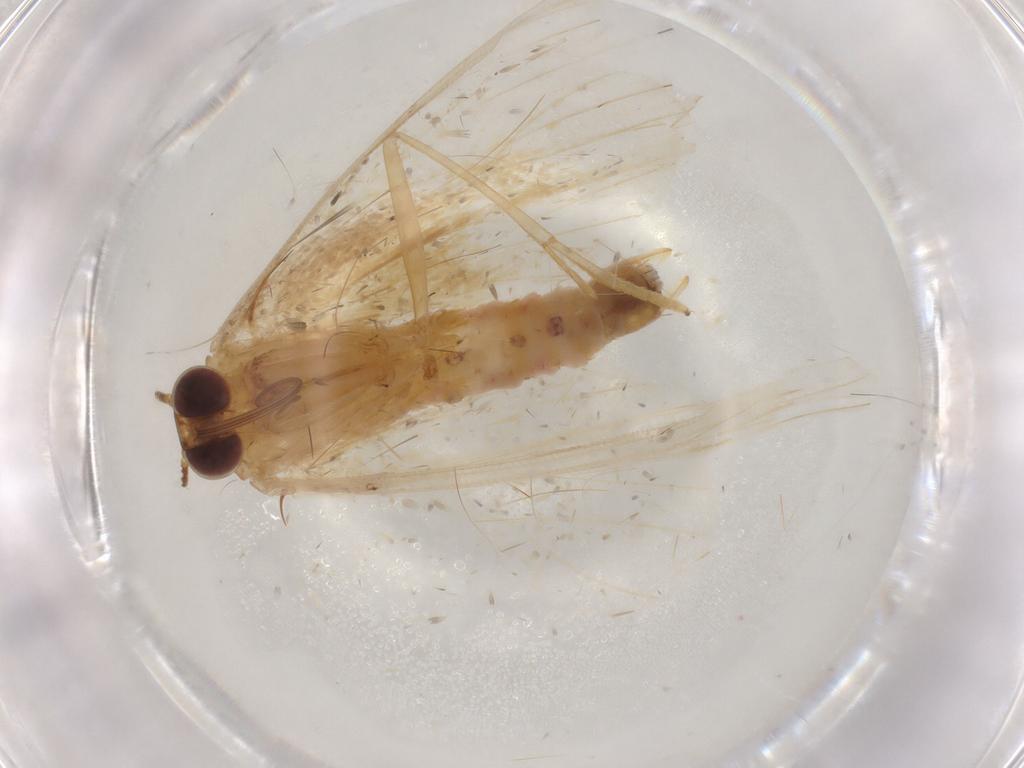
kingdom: Animalia
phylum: Arthropoda
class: Insecta
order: Lepidoptera
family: Geometridae
